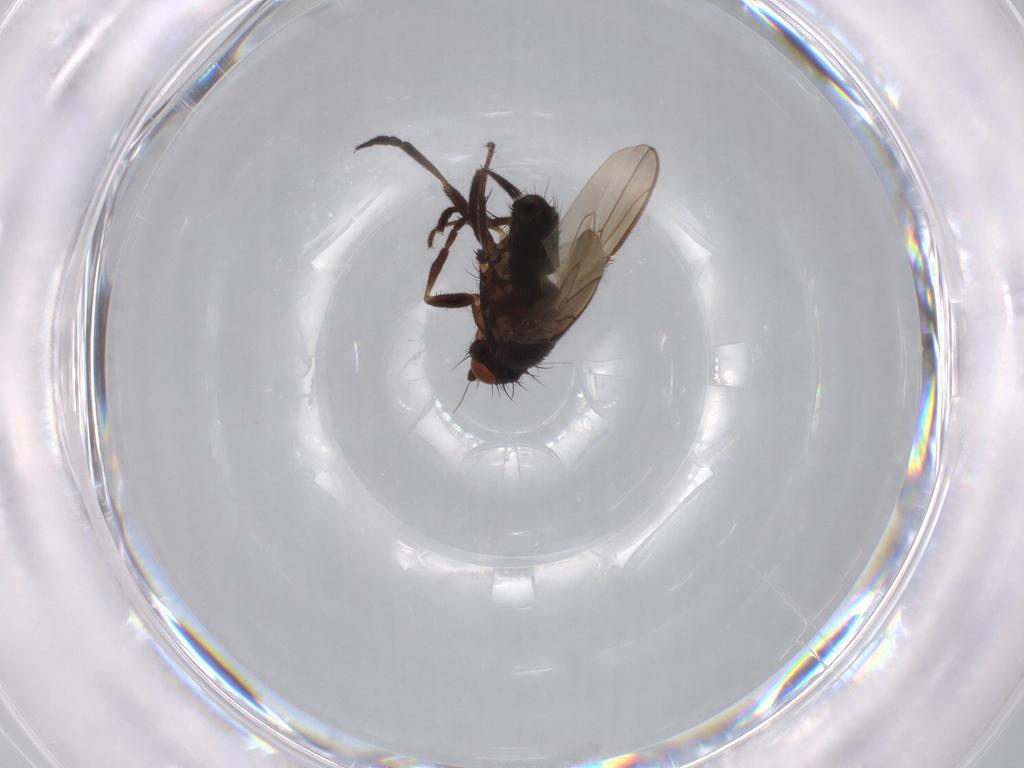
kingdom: Animalia
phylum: Arthropoda
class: Insecta
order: Diptera
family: Sphaeroceridae
